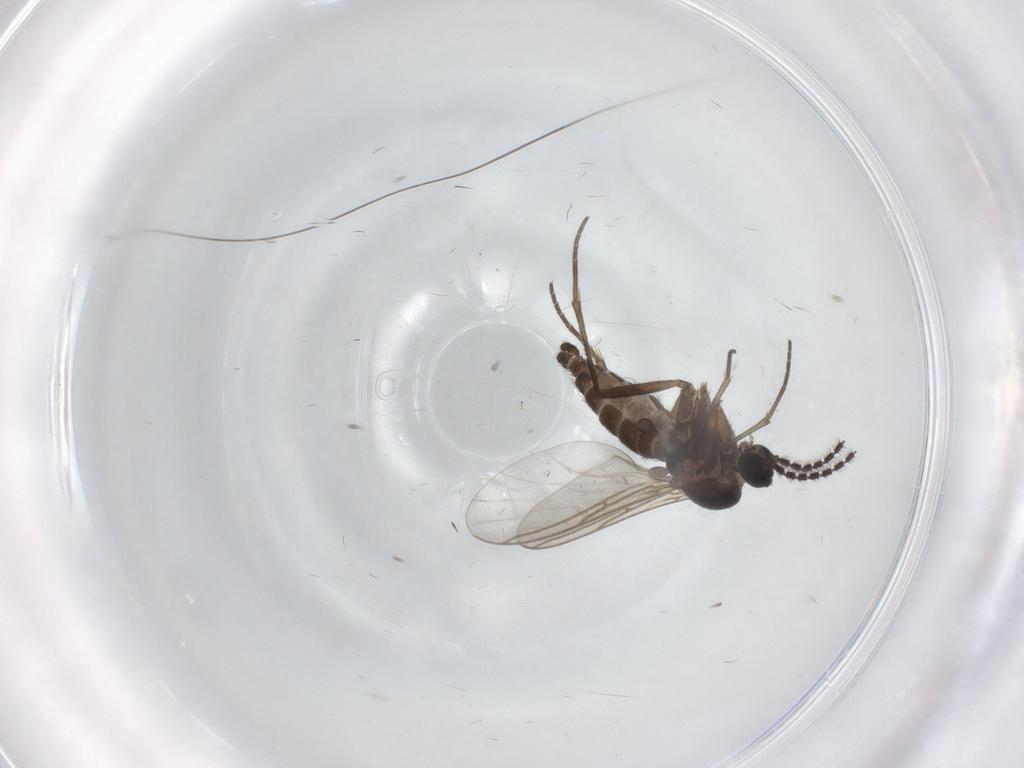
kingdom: Animalia
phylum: Arthropoda
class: Insecta
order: Diptera
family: Sciaridae
